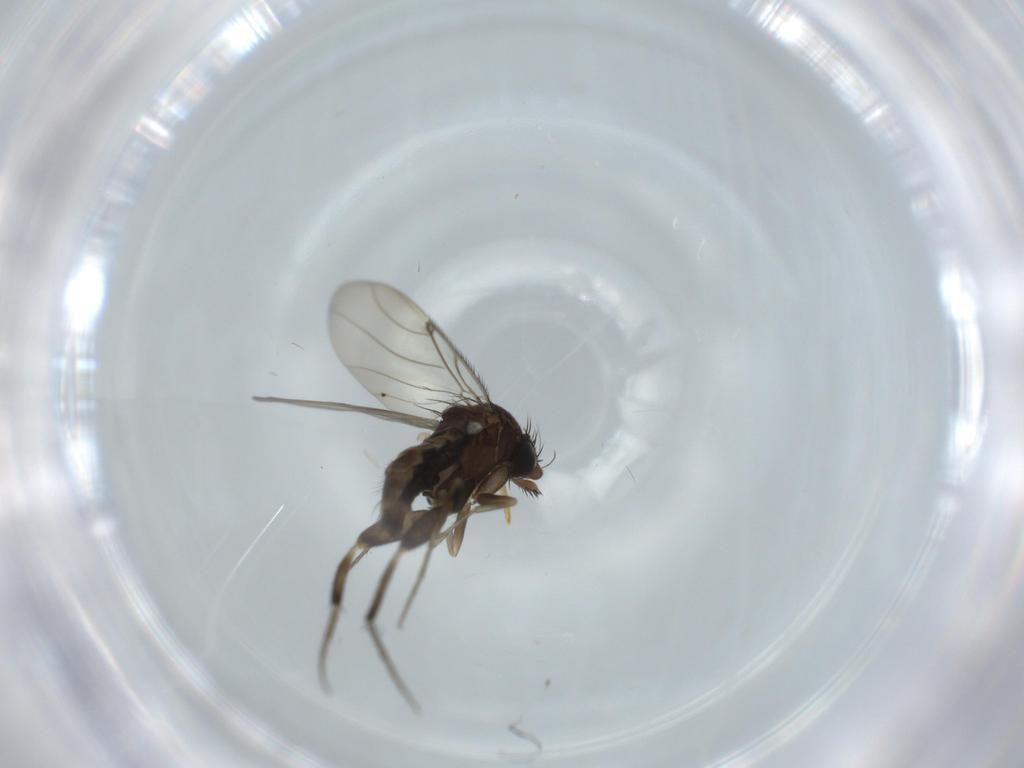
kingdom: Animalia
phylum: Arthropoda
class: Insecta
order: Diptera
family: Phoridae
